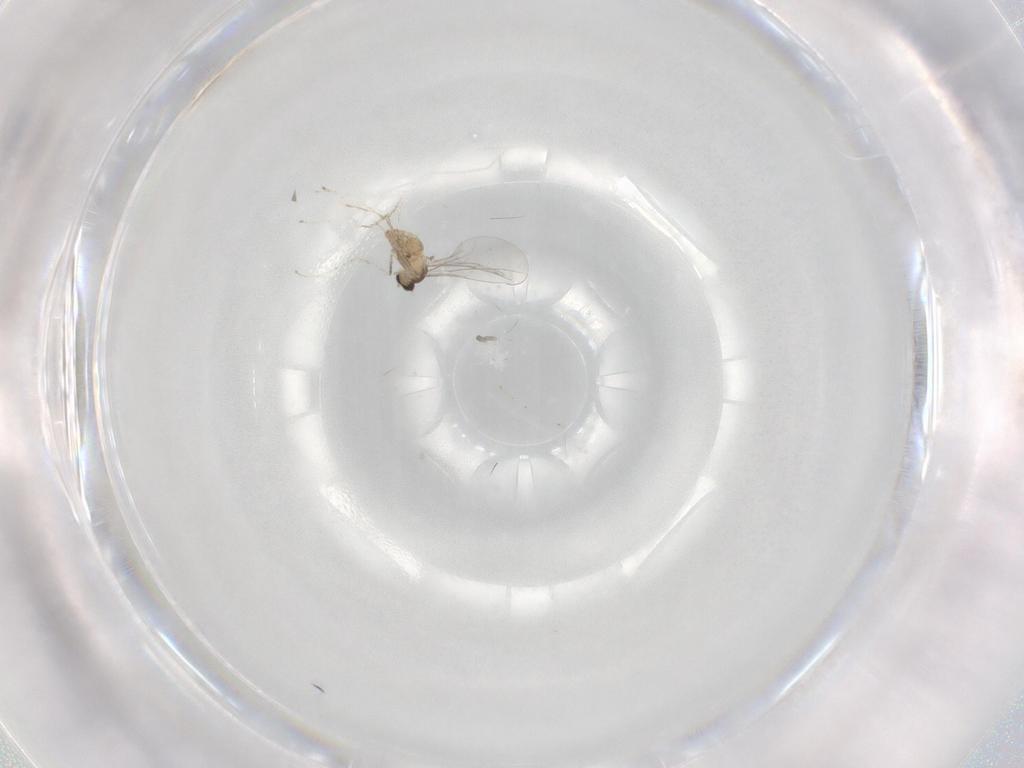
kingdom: Animalia
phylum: Arthropoda
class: Insecta
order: Diptera
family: Cecidomyiidae
